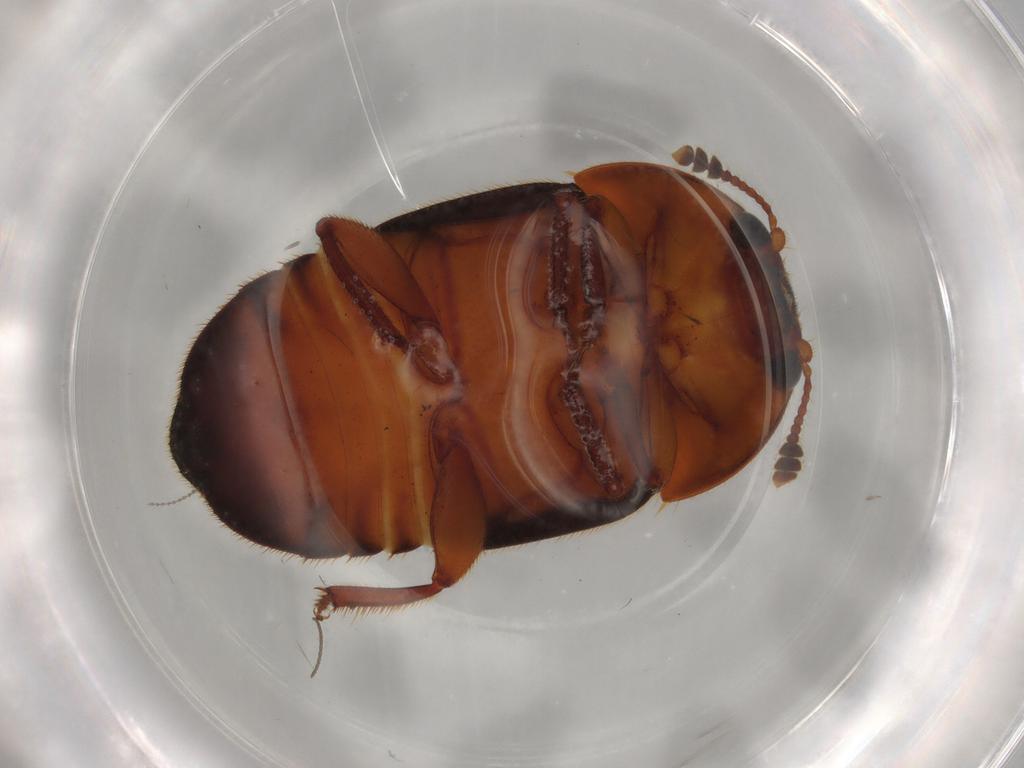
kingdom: Animalia
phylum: Arthropoda
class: Insecta
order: Coleoptera
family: Nitidulidae
